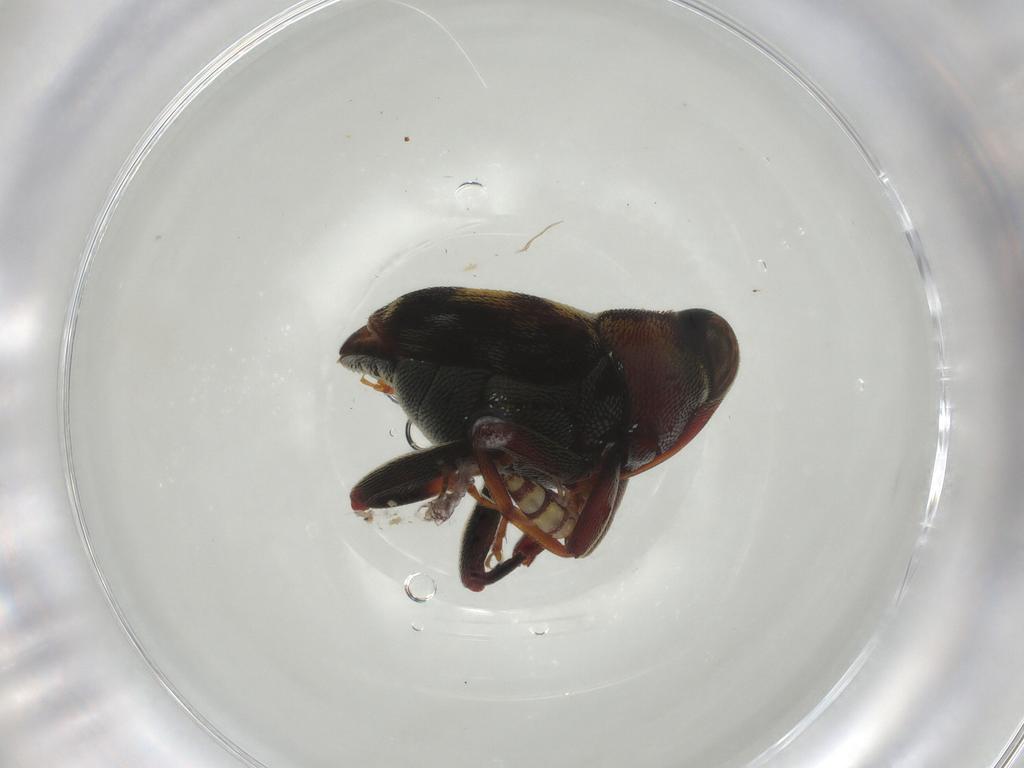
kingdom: Animalia
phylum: Arthropoda
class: Insecta
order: Coleoptera
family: Curculionidae
